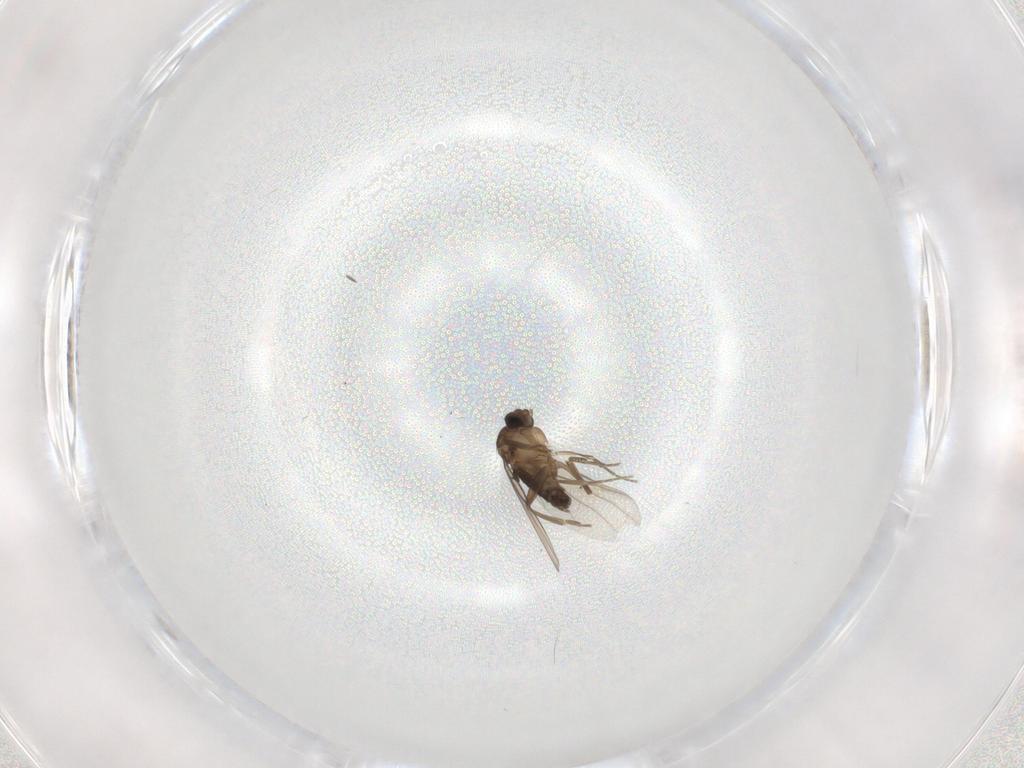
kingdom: Animalia
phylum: Arthropoda
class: Insecta
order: Diptera
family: Phoridae
